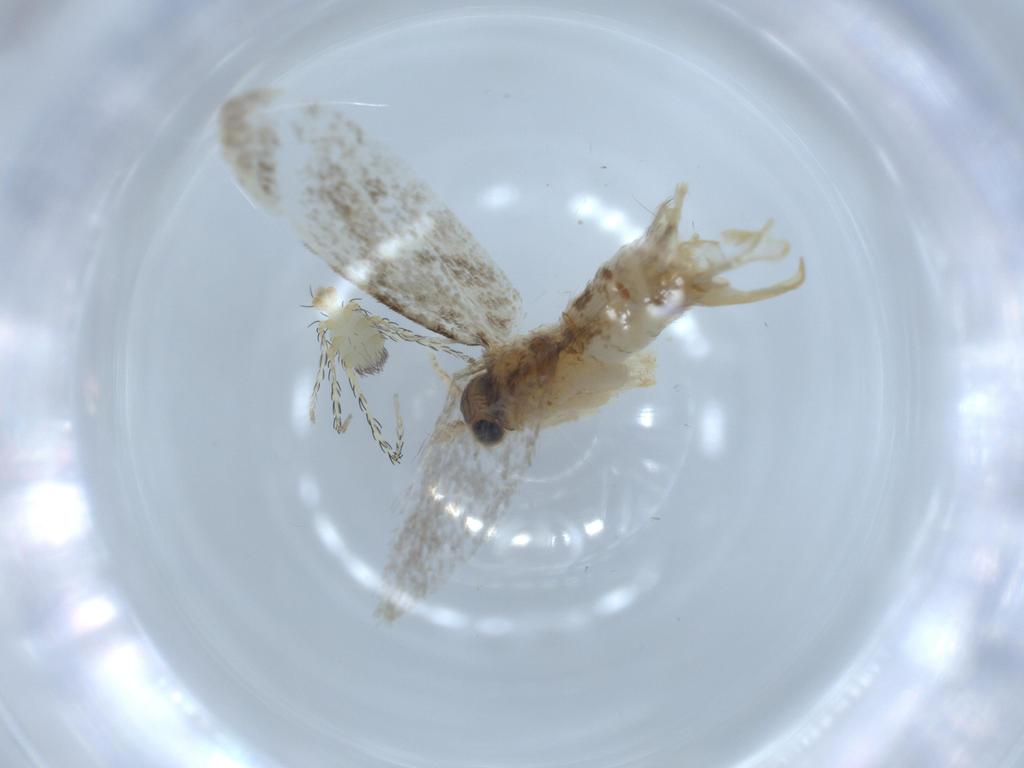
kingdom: Animalia
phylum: Arthropoda
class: Insecta
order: Lepidoptera
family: Tineidae
